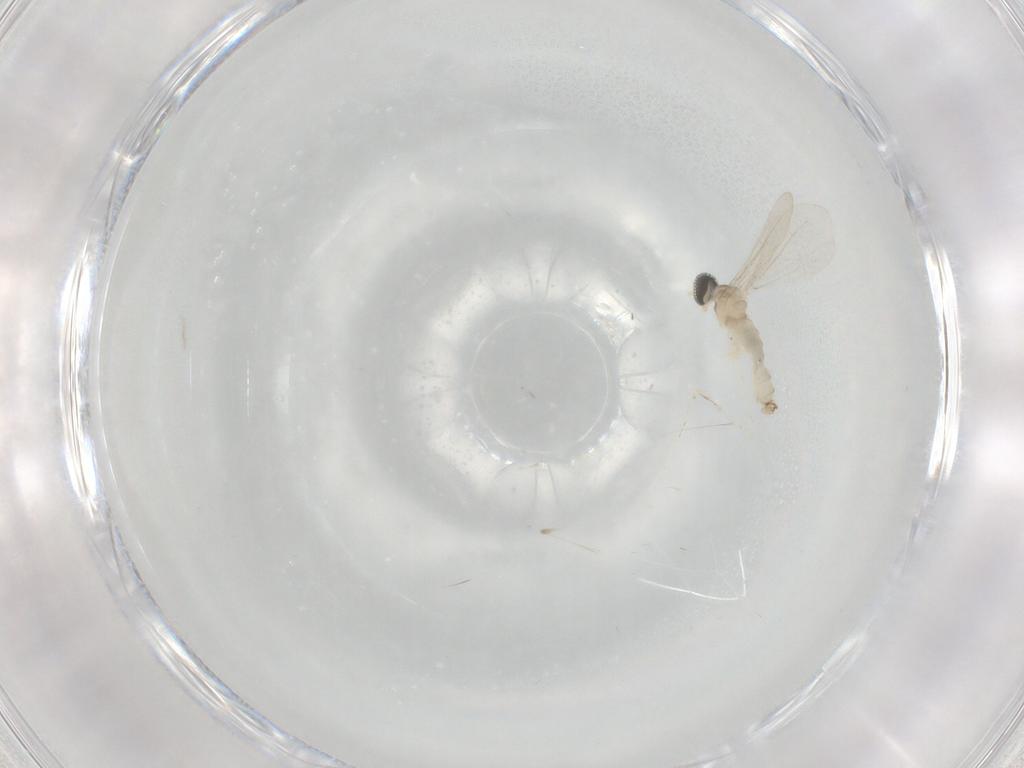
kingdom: Animalia
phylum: Arthropoda
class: Insecta
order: Diptera
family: Cecidomyiidae
